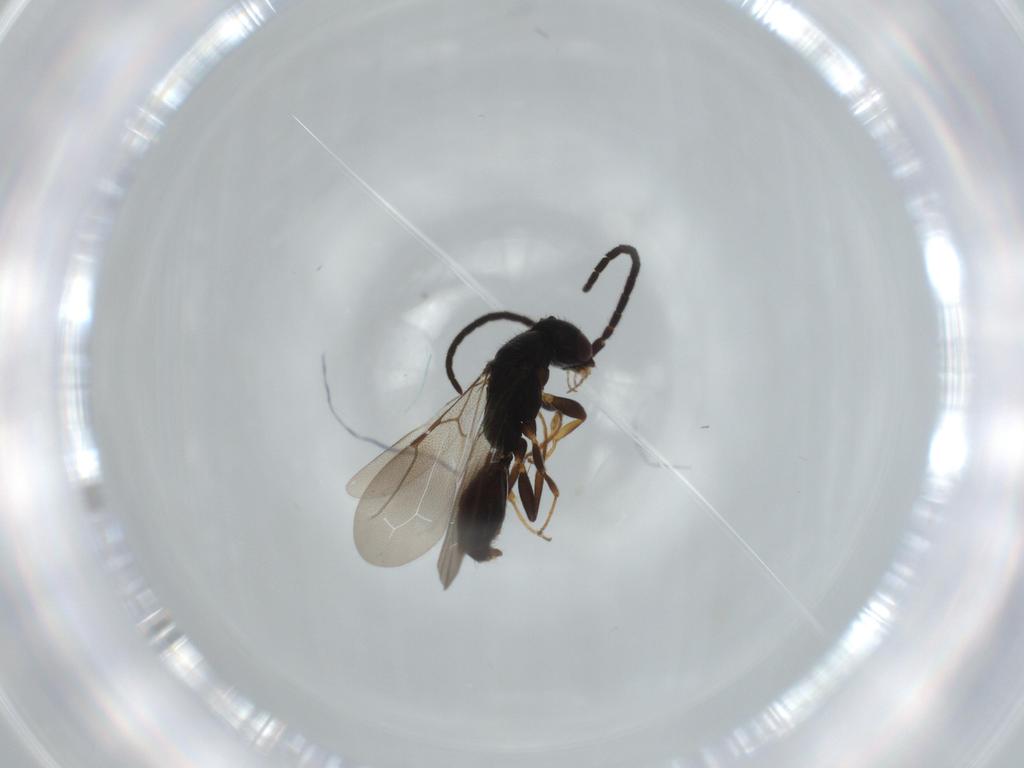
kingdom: Animalia
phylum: Arthropoda
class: Insecta
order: Hymenoptera
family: Bethylidae
